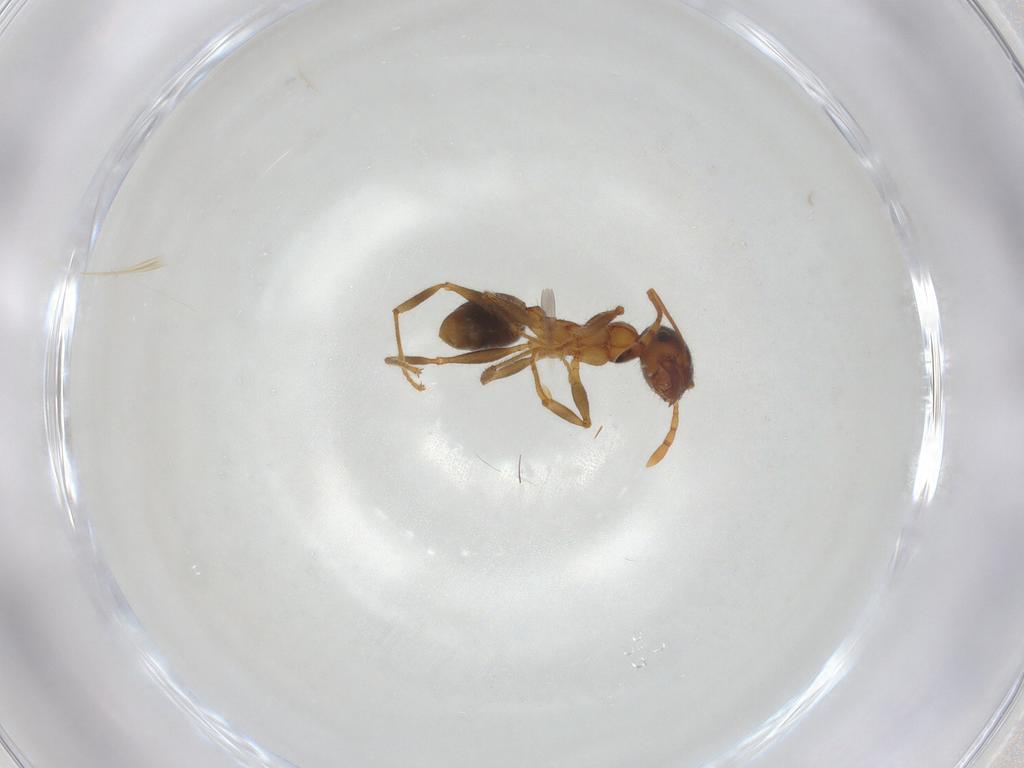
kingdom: Animalia
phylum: Arthropoda
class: Insecta
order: Hymenoptera
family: Formicidae
